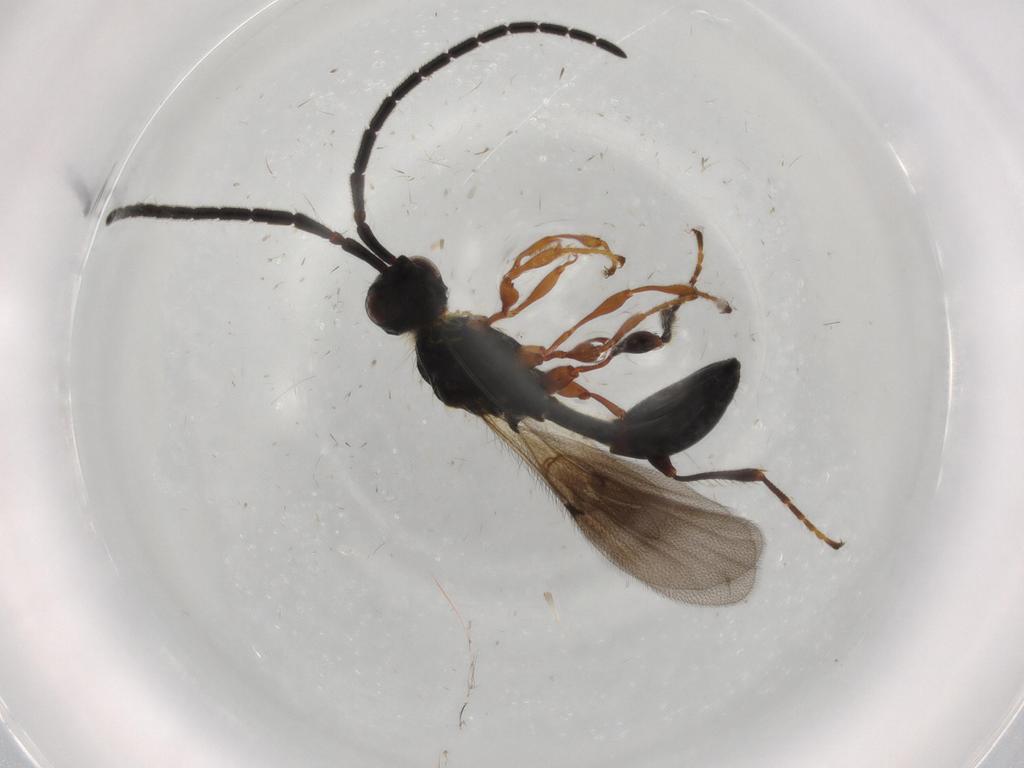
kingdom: Animalia
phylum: Arthropoda
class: Insecta
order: Hymenoptera
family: Diapriidae
